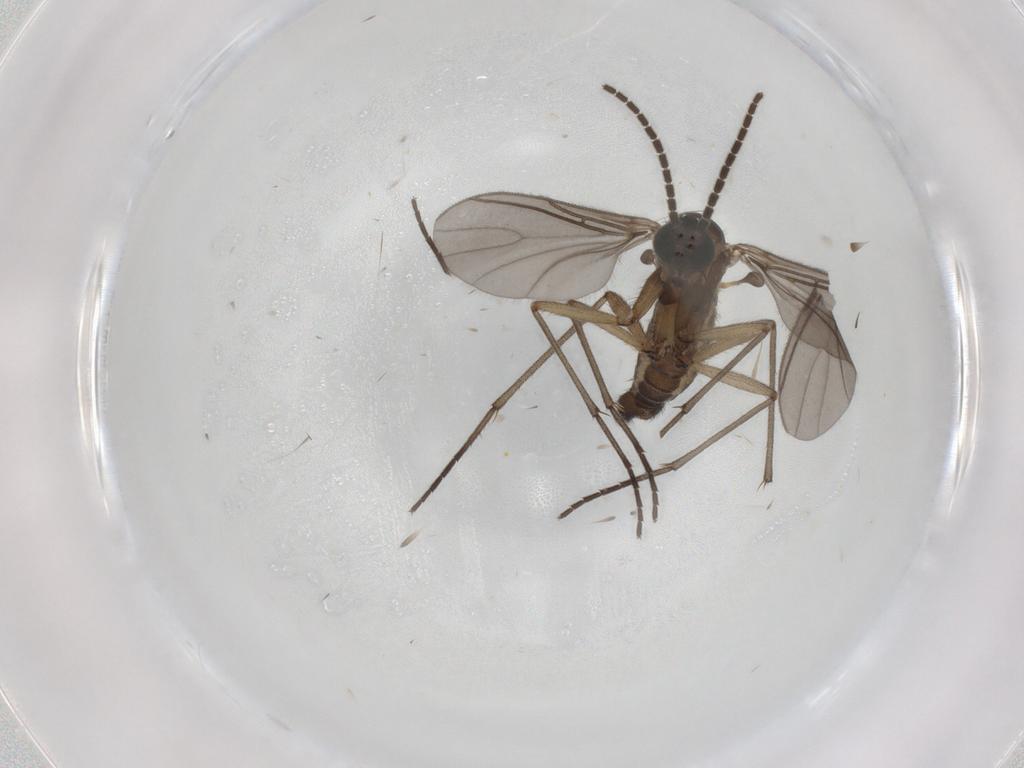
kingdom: Animalia
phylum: Arthropoda
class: Insecta
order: Diptera
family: Sciaridae
